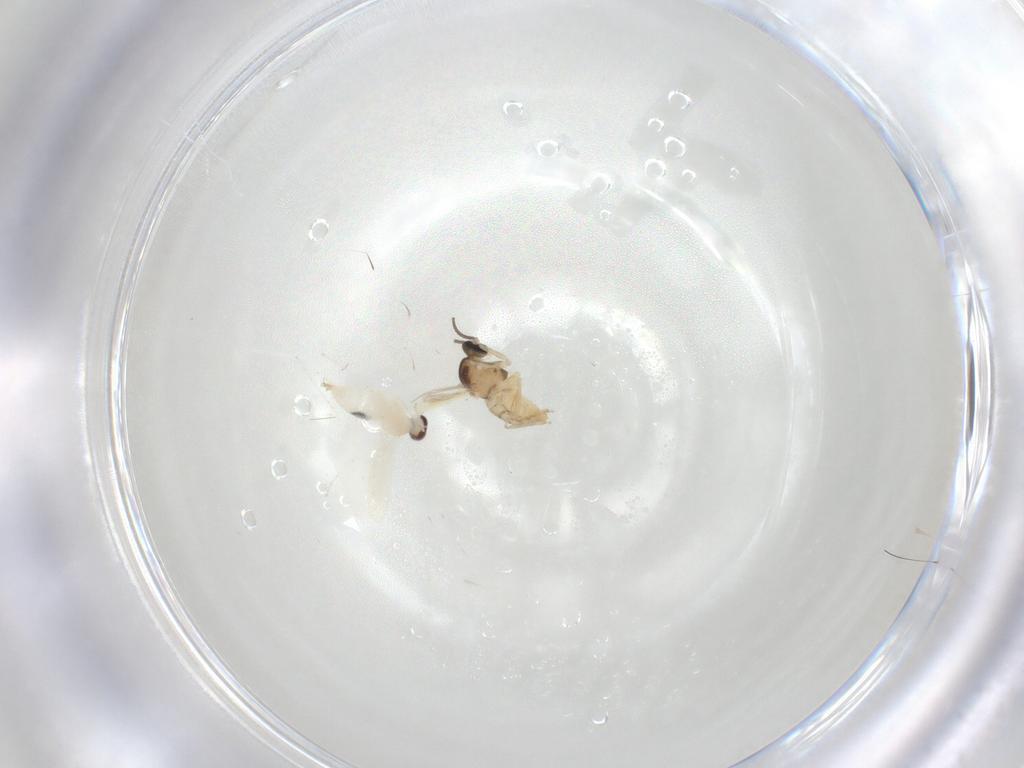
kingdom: Animalia
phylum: Arthropoda
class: Insecta
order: Diptera
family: Cecidomyiidae
